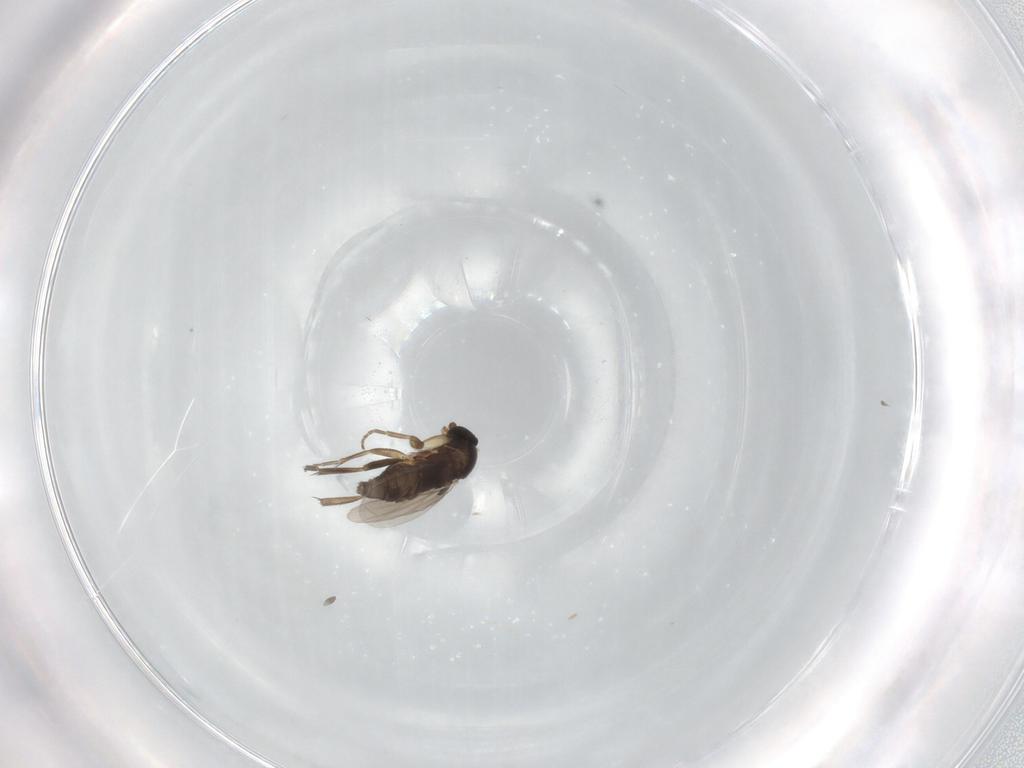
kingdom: Animalia
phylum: Arthropoda
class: Insecta
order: Diptera
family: Phoridae
